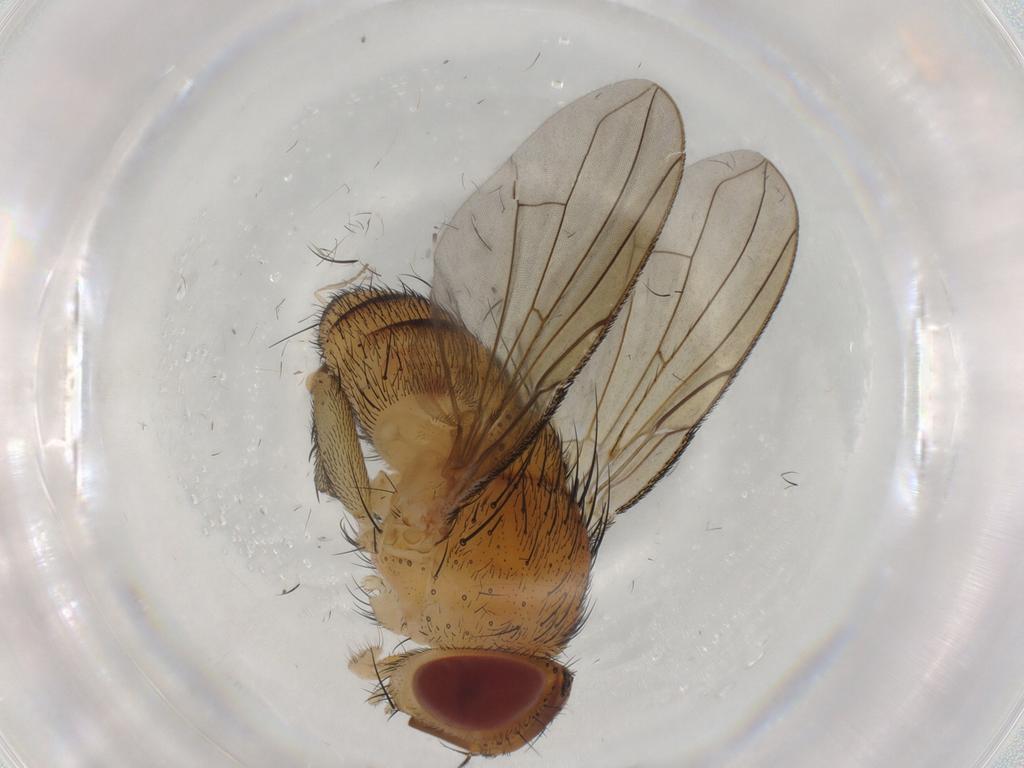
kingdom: Animalia
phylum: Arthropoda
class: Insecta
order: Diptera
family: Calliphoridae
